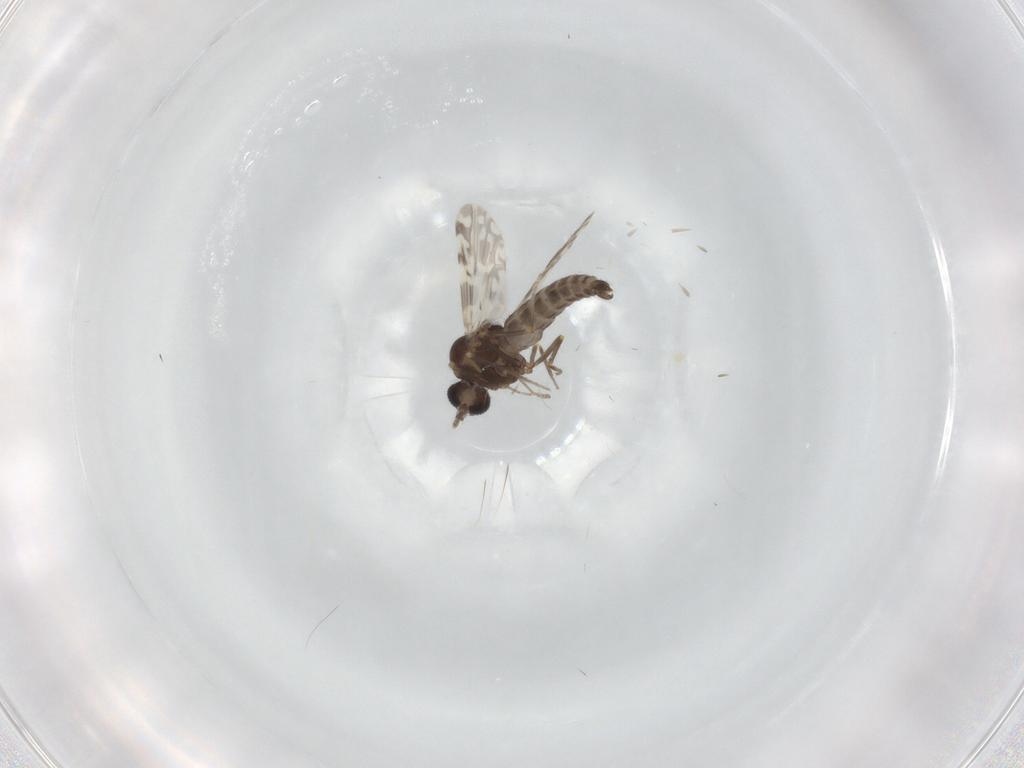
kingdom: Animalia
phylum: Arthropoda
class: Insecta
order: Diptera
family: Ceratopogonidae
